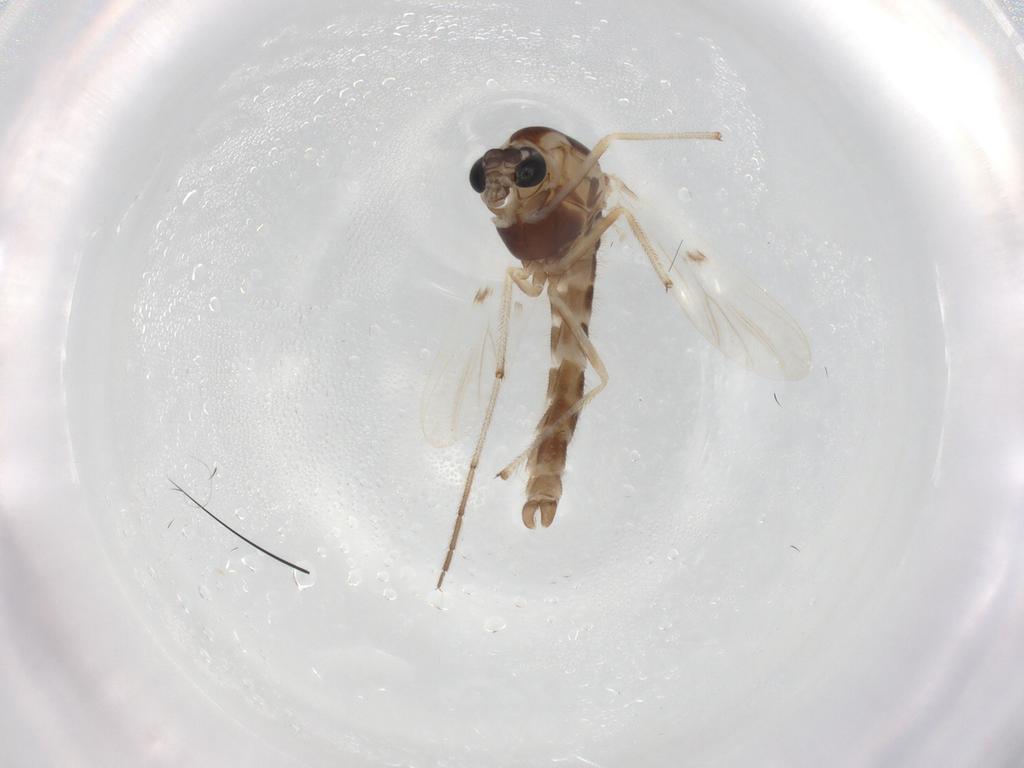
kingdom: Animalia
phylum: Arthropoda
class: Insecta
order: Diptera
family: Chironomidae
